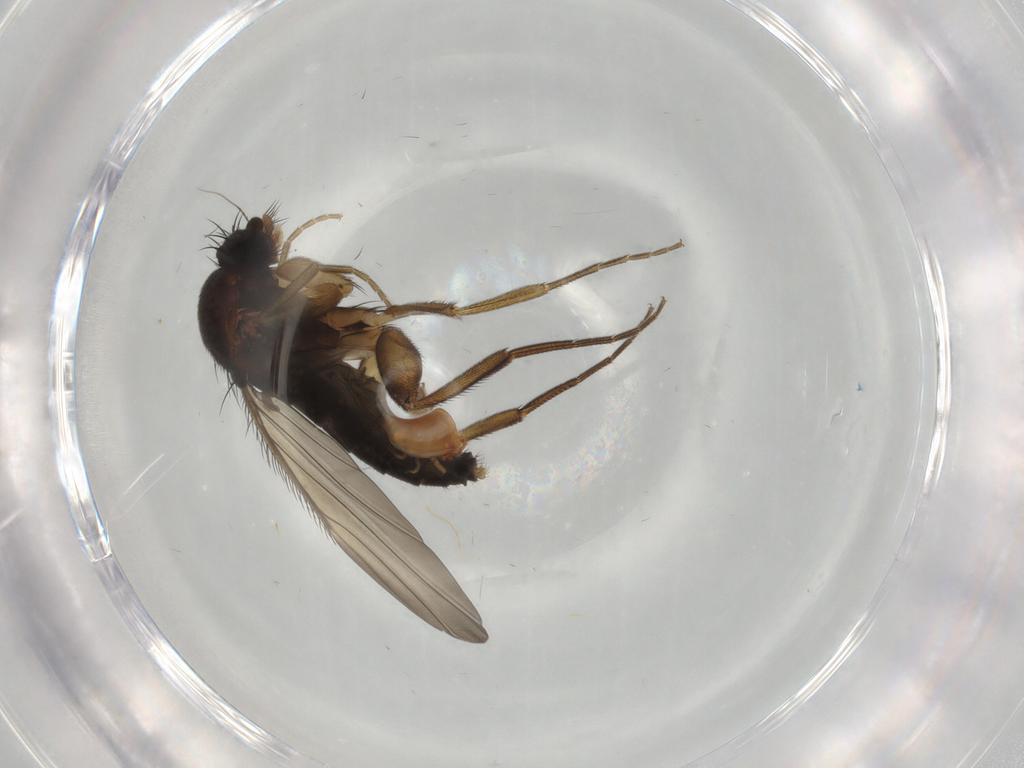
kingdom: Animalia
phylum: Arthropoda
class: Insecta
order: Diptera
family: Phoridae
